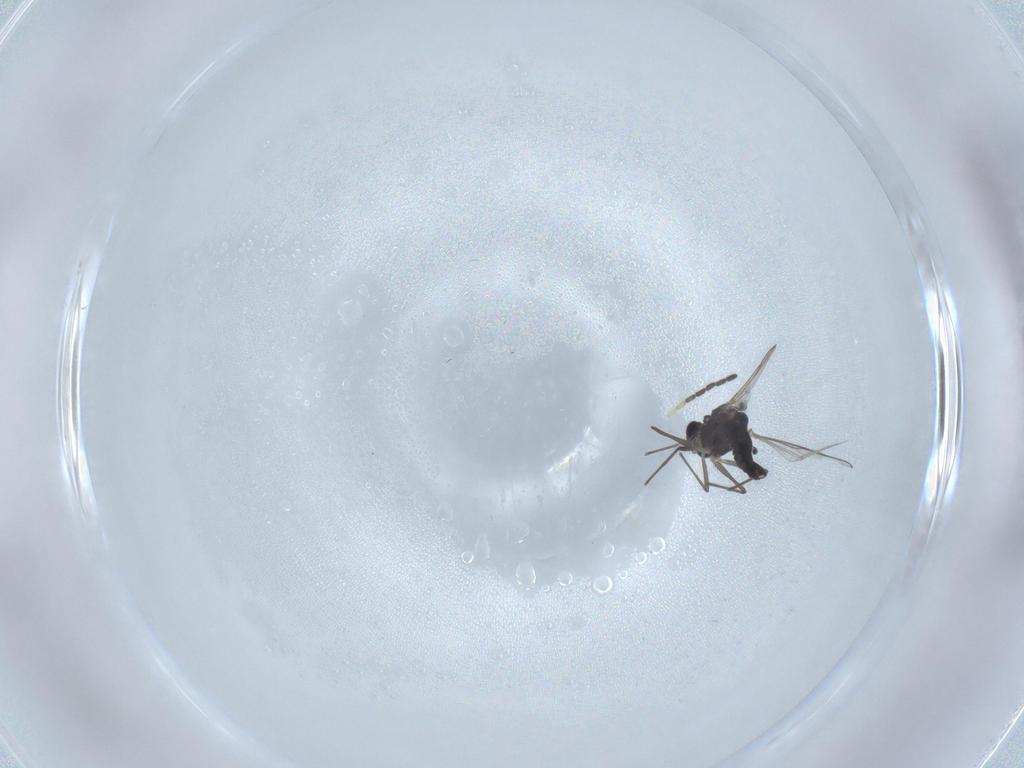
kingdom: Animalia
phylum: Arthropoda
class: Insecta
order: Diptera
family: Chironomidae
